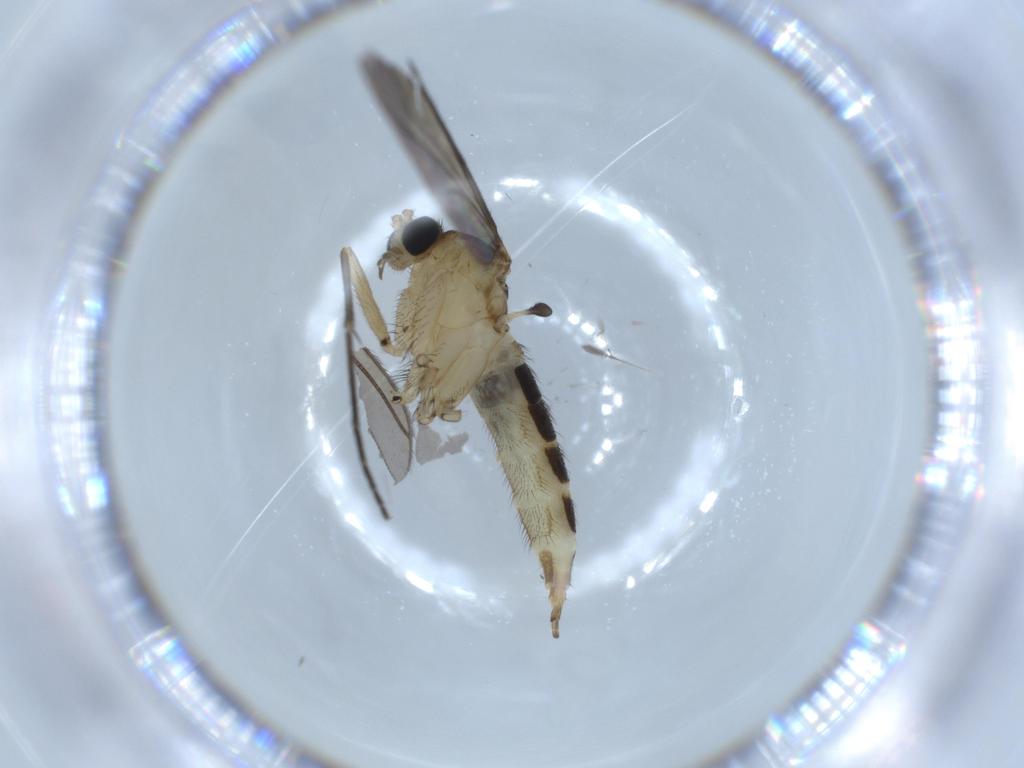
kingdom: Animalia
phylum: Arthropoda
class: Insecta
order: Diptera
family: Sciaridae
